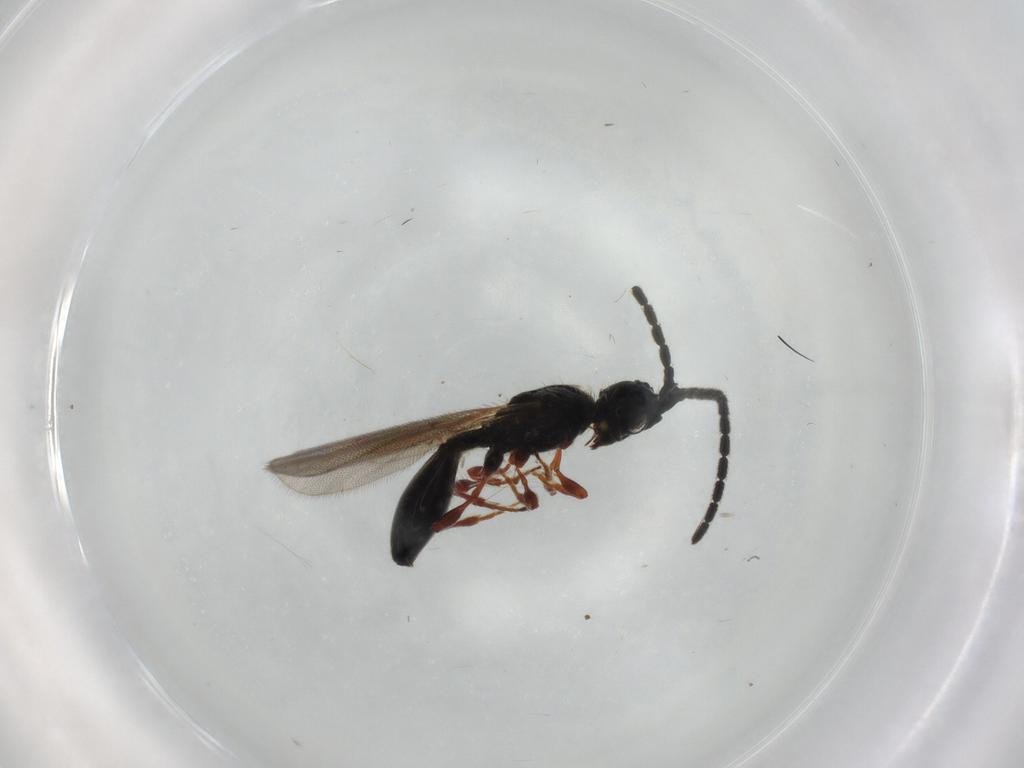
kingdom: Animalia
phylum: Arthropoda
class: Insecta
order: Hymenoptera
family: Diapriidae
